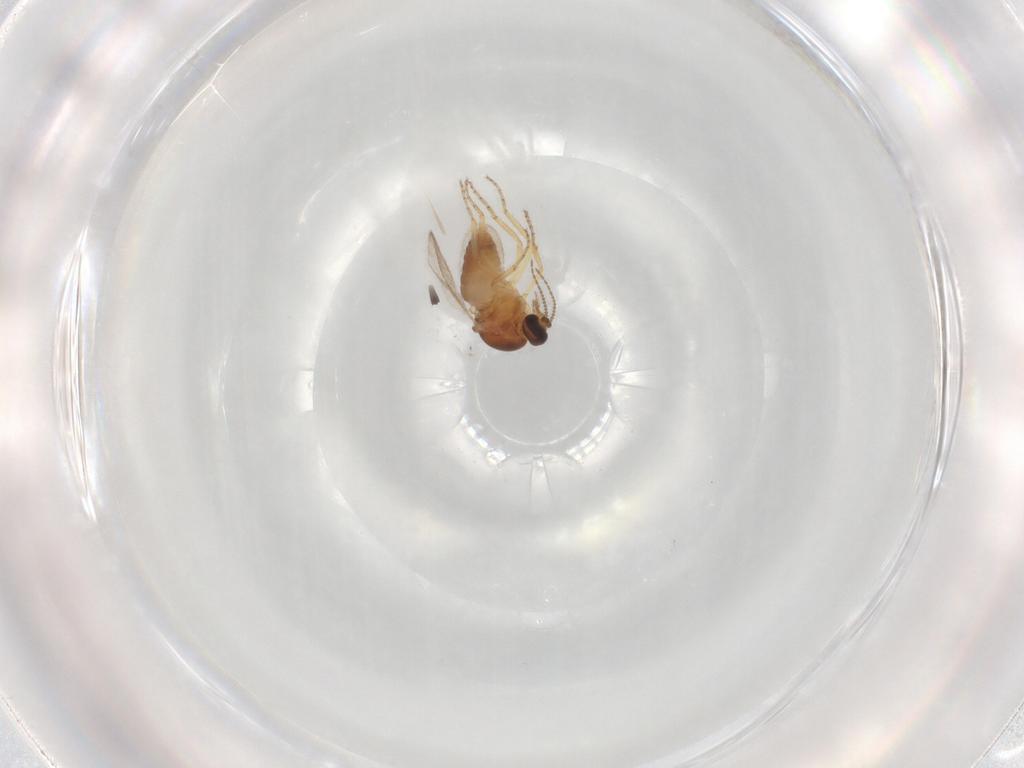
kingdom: Animalia
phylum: Arthropoda
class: Insecta
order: Diptera
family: Ceratopogonidae
